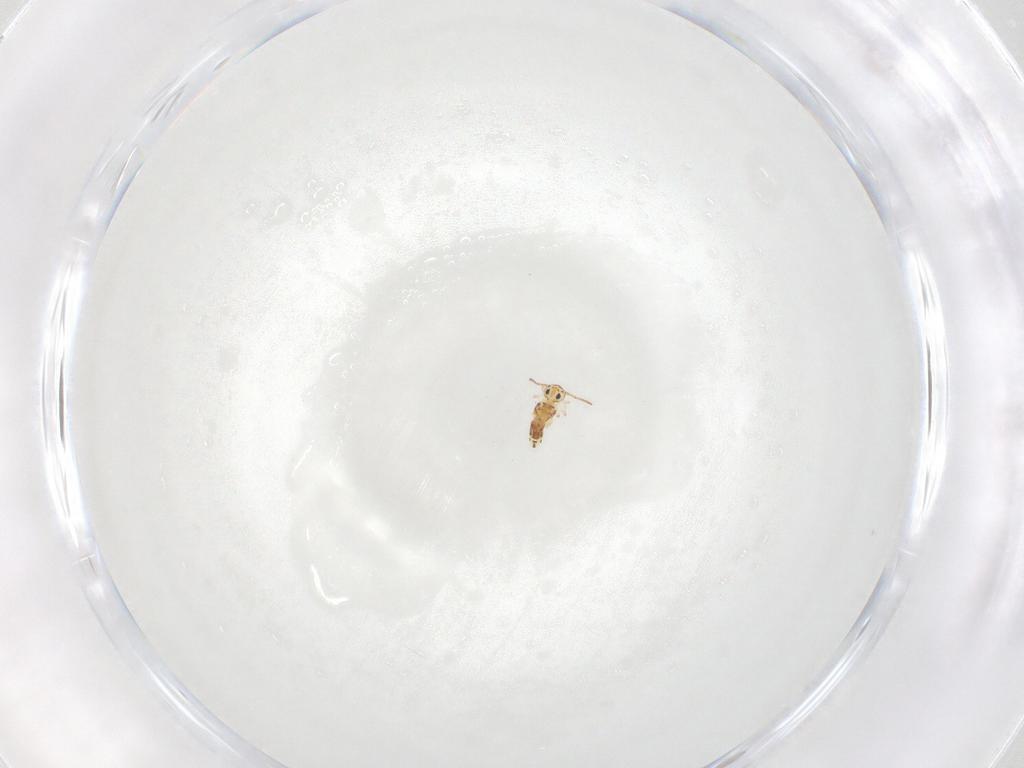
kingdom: Animalia
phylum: Arthropoda
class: Collembola
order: Symphypleona
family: Bourletiellidae
